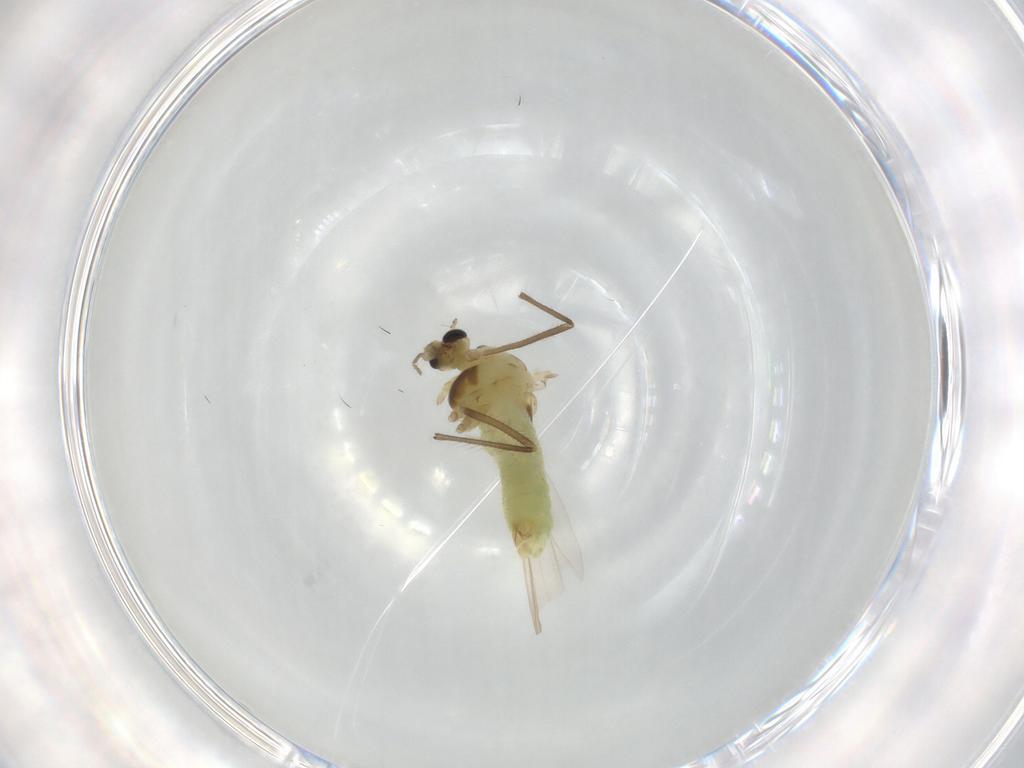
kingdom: Animalia
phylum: Arthropoda
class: Insecta
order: Diptera
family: Chironomidae
